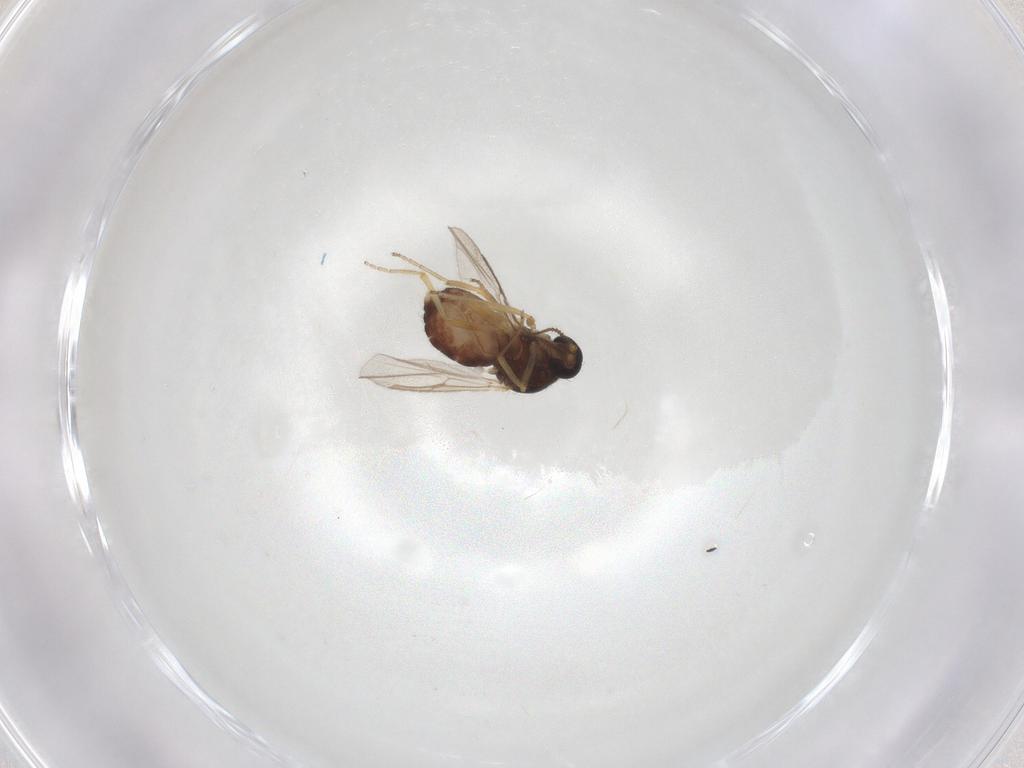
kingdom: Animalia
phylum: Arthropoda
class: Insecta
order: Diptera
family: Ceratopogonidae
